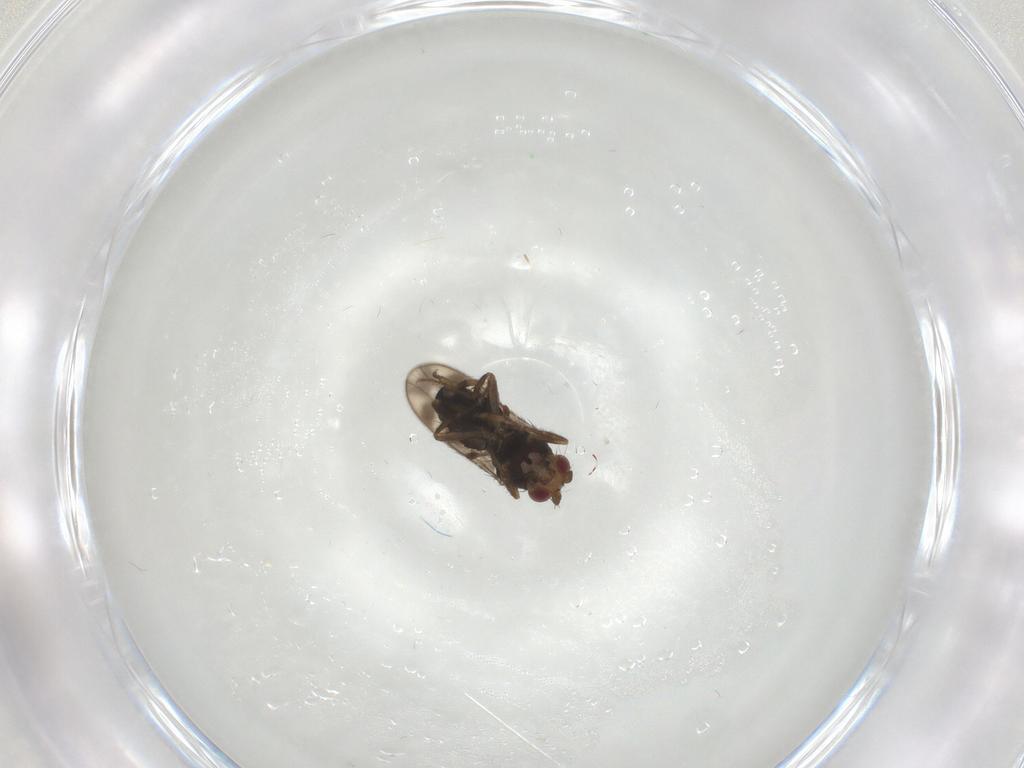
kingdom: Animalia
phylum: Arthropoda
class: Insecta
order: Diptera
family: Sphaeroceridae
